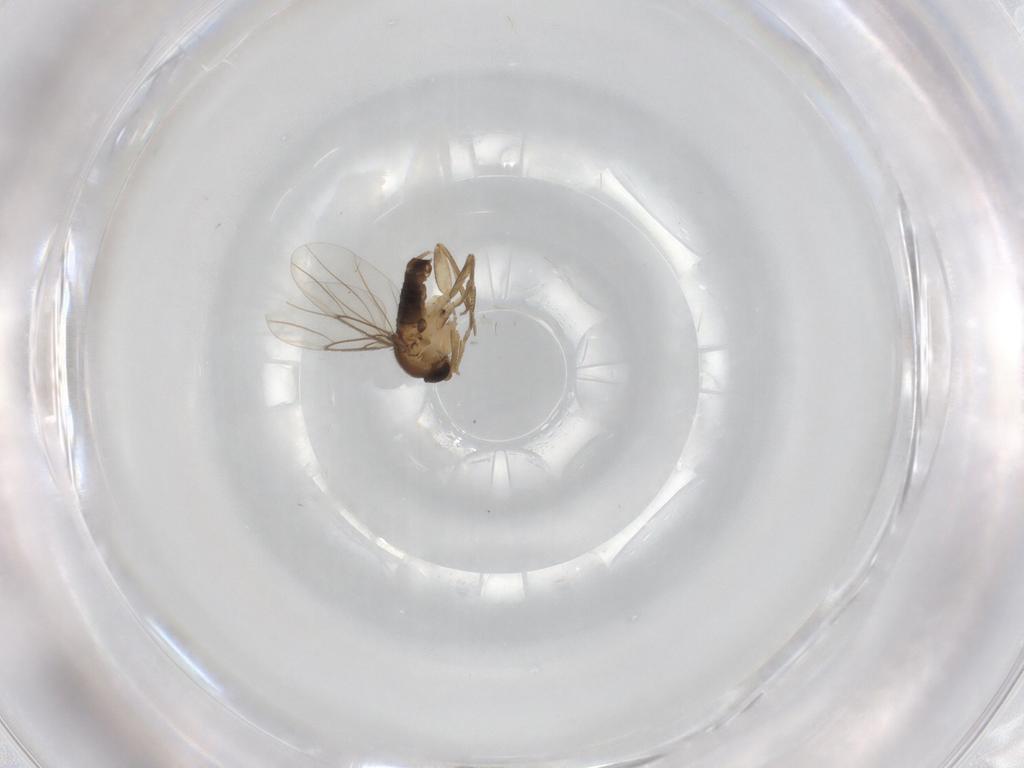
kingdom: Animalia
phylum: Arthropoda
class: Insecta
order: Diptera
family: Phoridae
